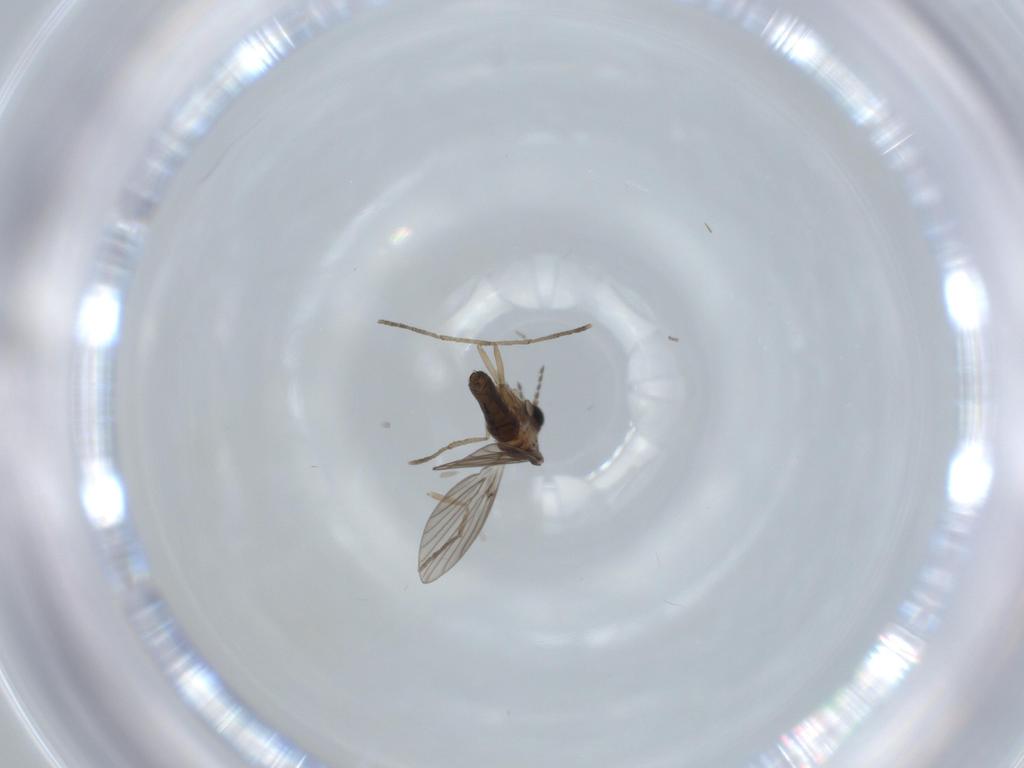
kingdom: Animalia
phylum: Arthropoda
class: Insecta
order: Diptera
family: Psychodidae
